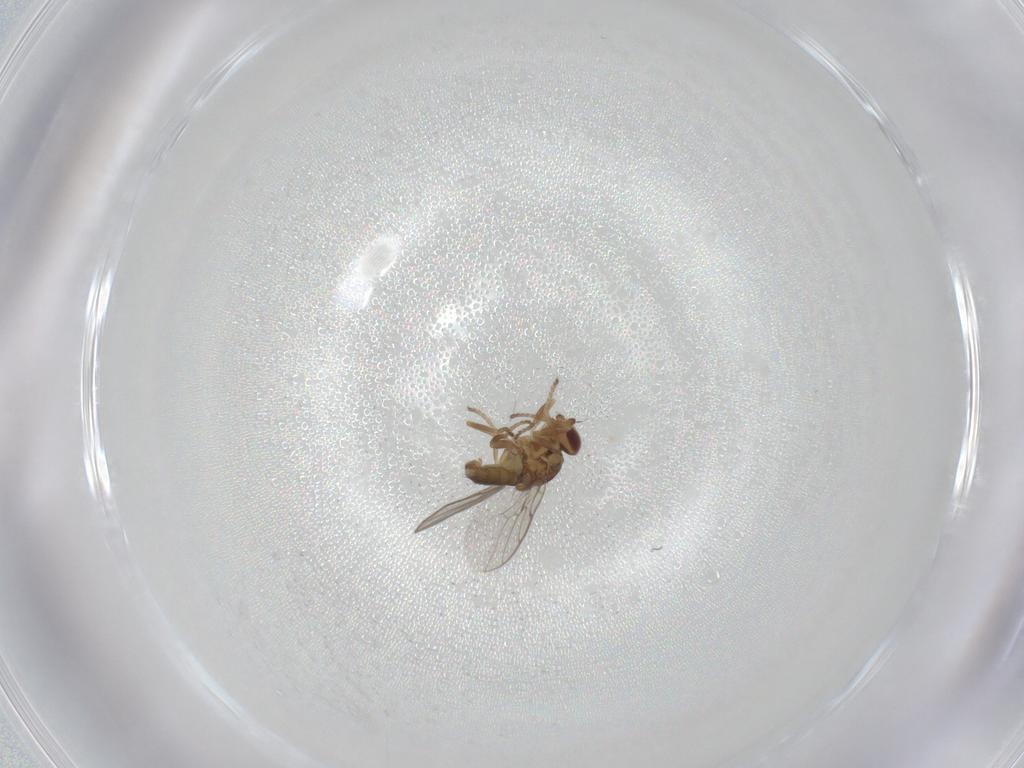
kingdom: Animalia
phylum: Arthropoda
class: Insecta
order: Diptera
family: Chloropidae
